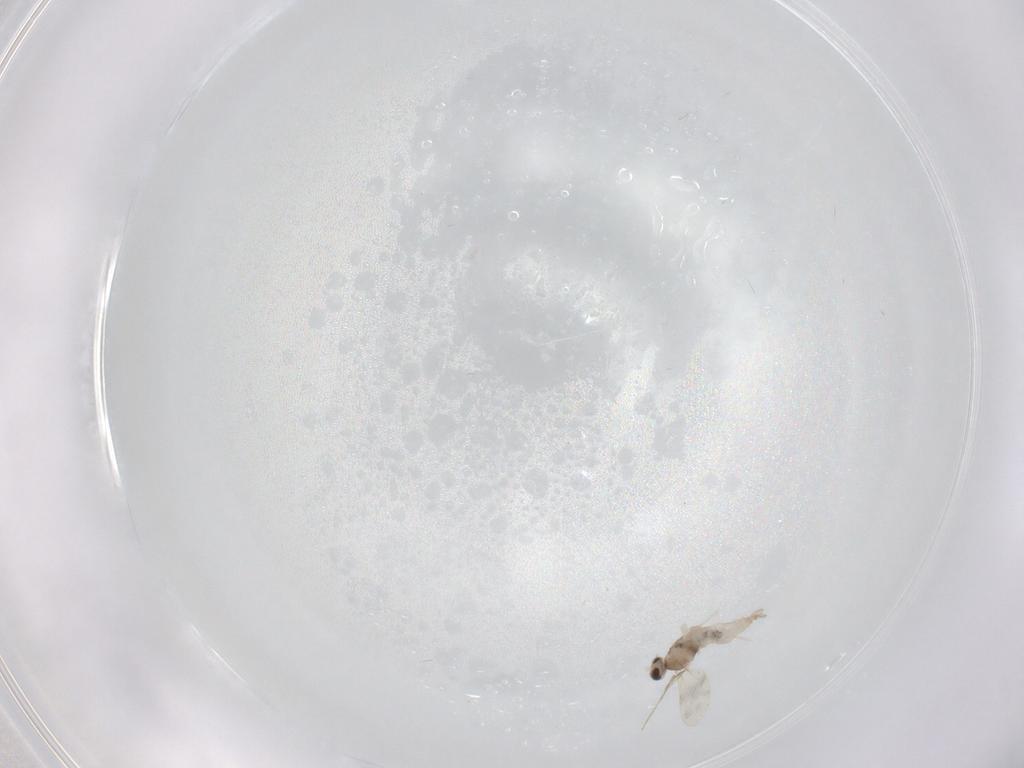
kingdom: Animalia
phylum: Arthropoda
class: Insecta
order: Diptera
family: Cecidomyiidae
